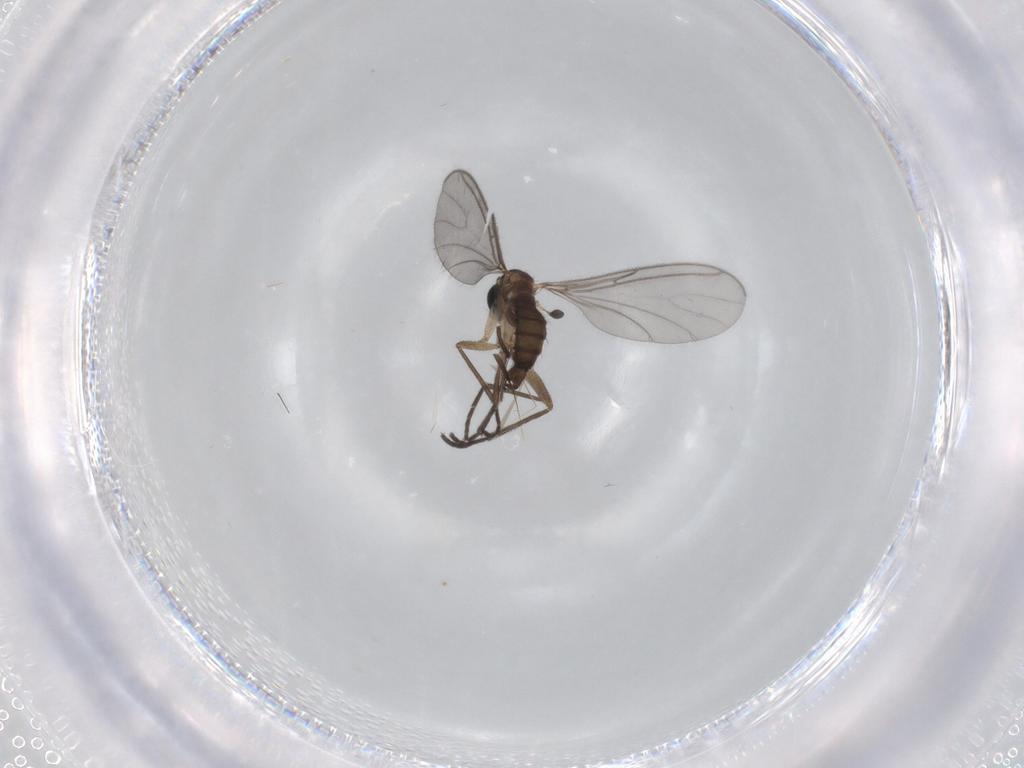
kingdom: Animalia
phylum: Arthropoda
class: Insecta
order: Diptera
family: Sciaridae
